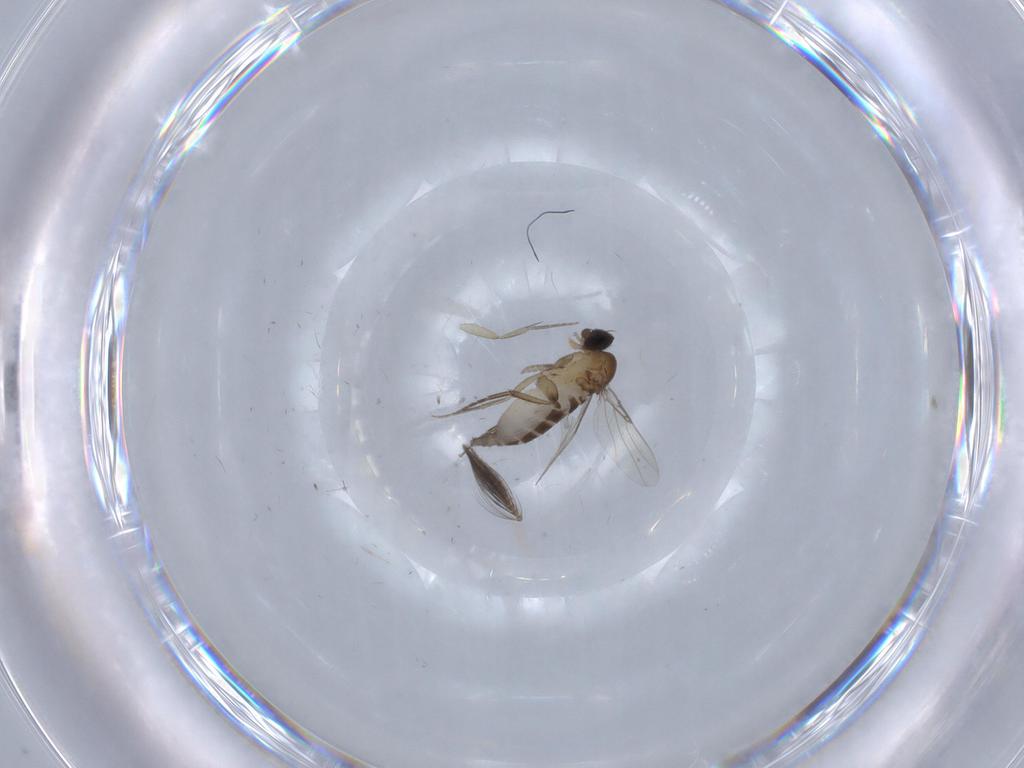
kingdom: Animalia
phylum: Arthropoda
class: Insecta
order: Diptera
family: Phoridae
